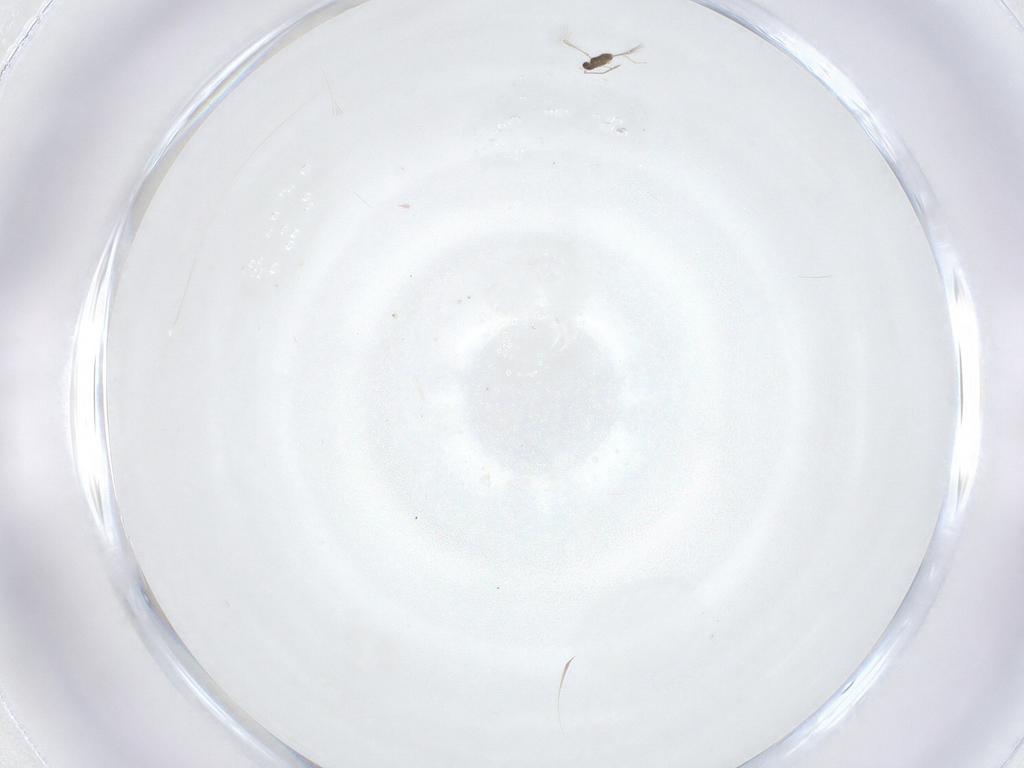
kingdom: Animalia
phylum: Arthropoda
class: Insecta
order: Hymenoptera
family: Mymaridae
